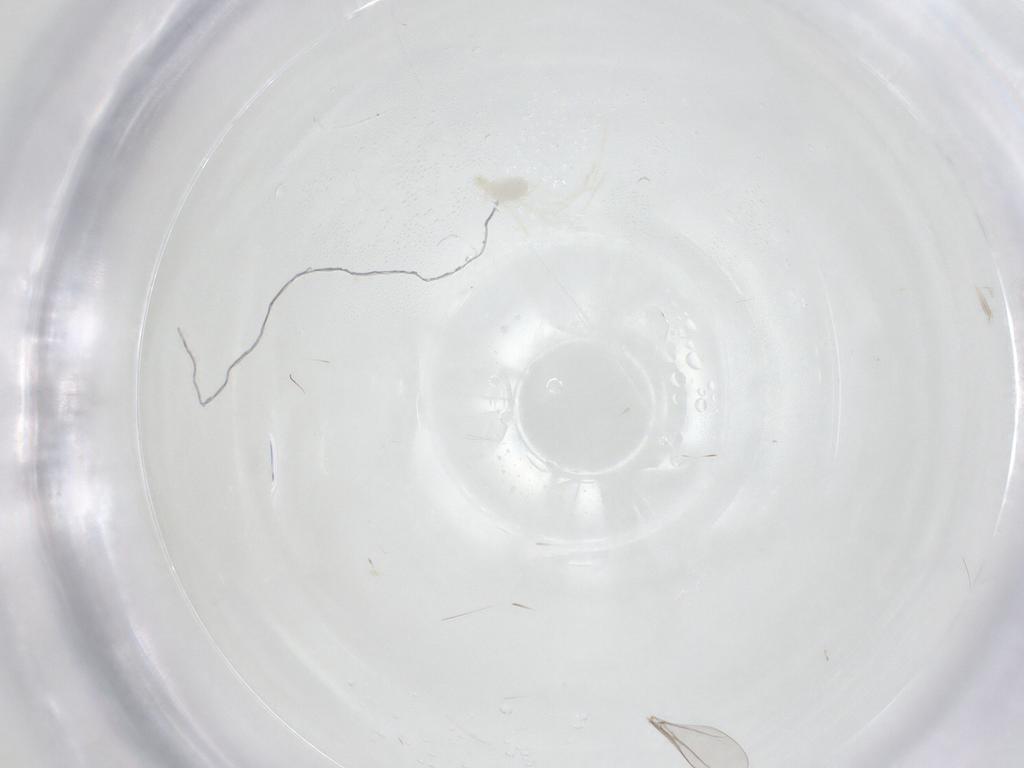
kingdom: Animalia
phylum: Arthropoda
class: Insecta
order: Diptera
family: Cecidomyiidae
